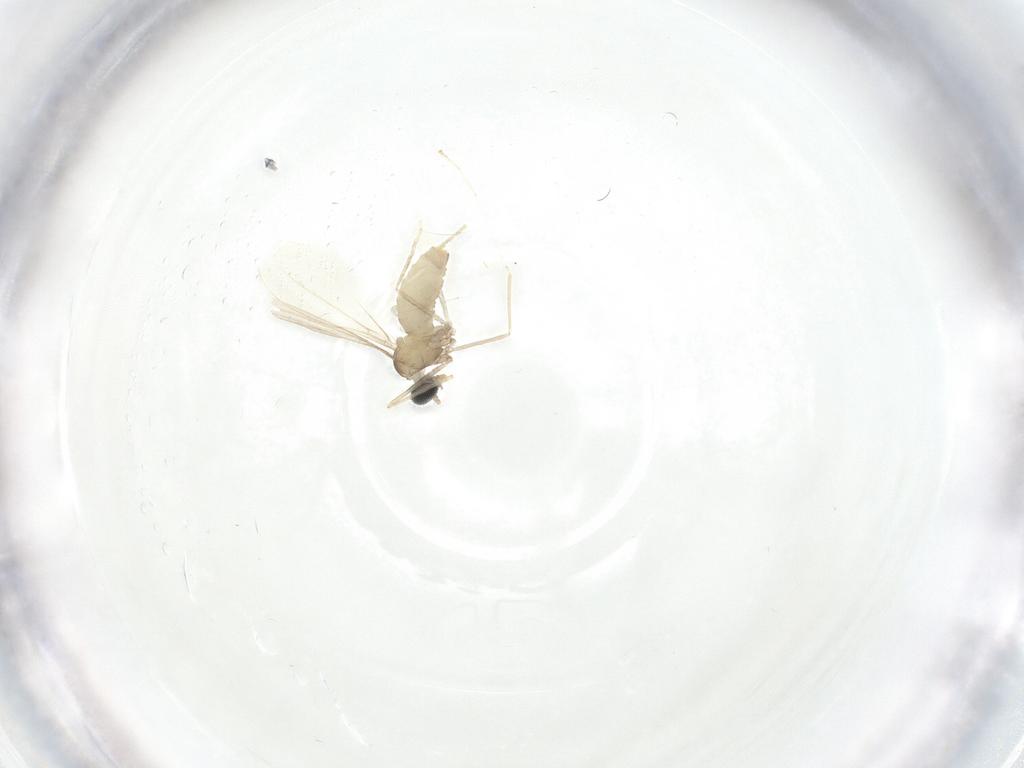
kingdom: Animalia
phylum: Arthropoda
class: Insecta
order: Diptera
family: Cecidomyiidae
